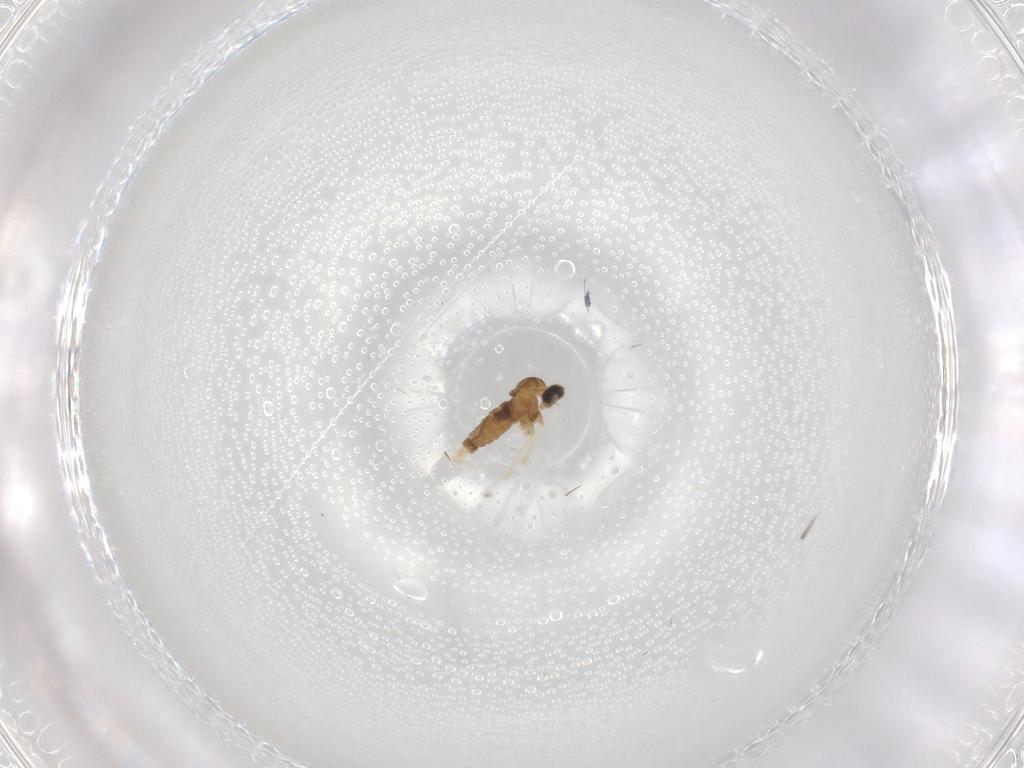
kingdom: Animalia
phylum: Arthropoda
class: Insecta
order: Diptera
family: Cecidomyiidae
